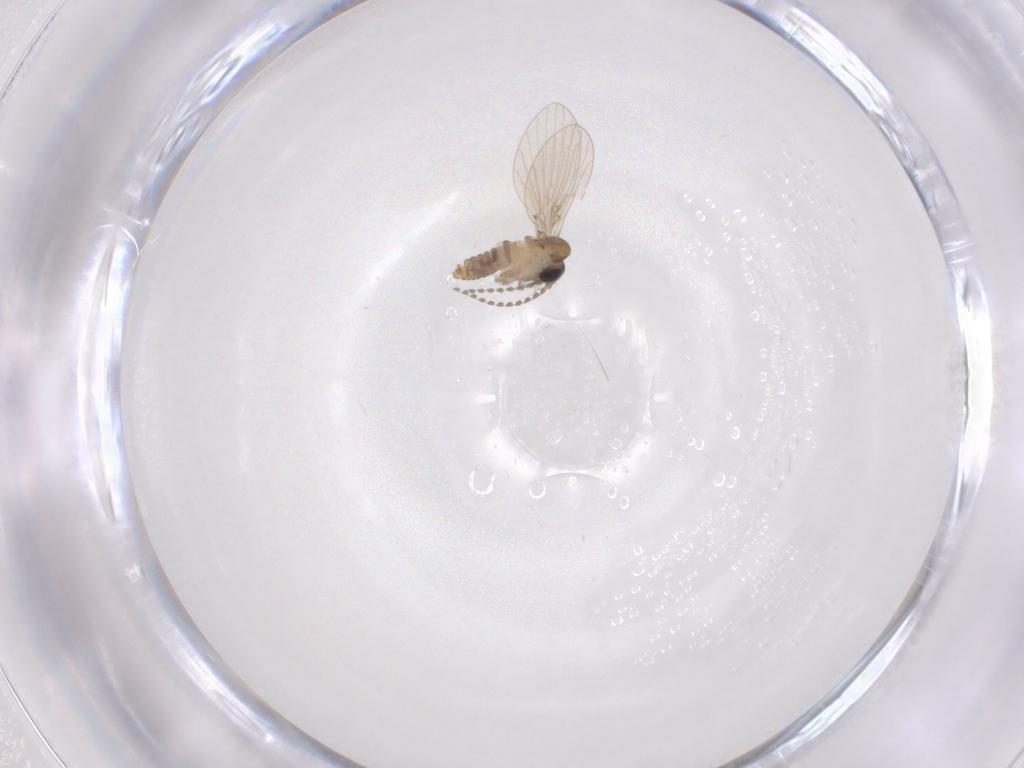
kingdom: Animalia
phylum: Arthropoda
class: Insecta
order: Diptera
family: Psychodidae
